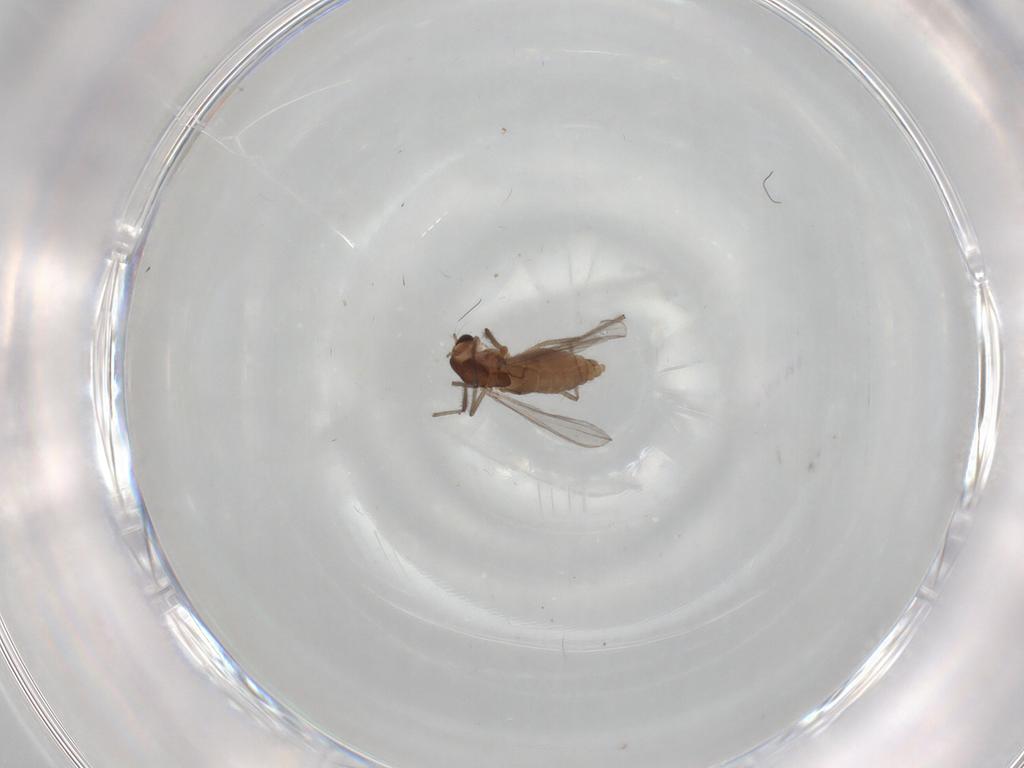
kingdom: Animalia
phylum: Arthropoda
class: Insecta
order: Diptera
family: Chironomidae
